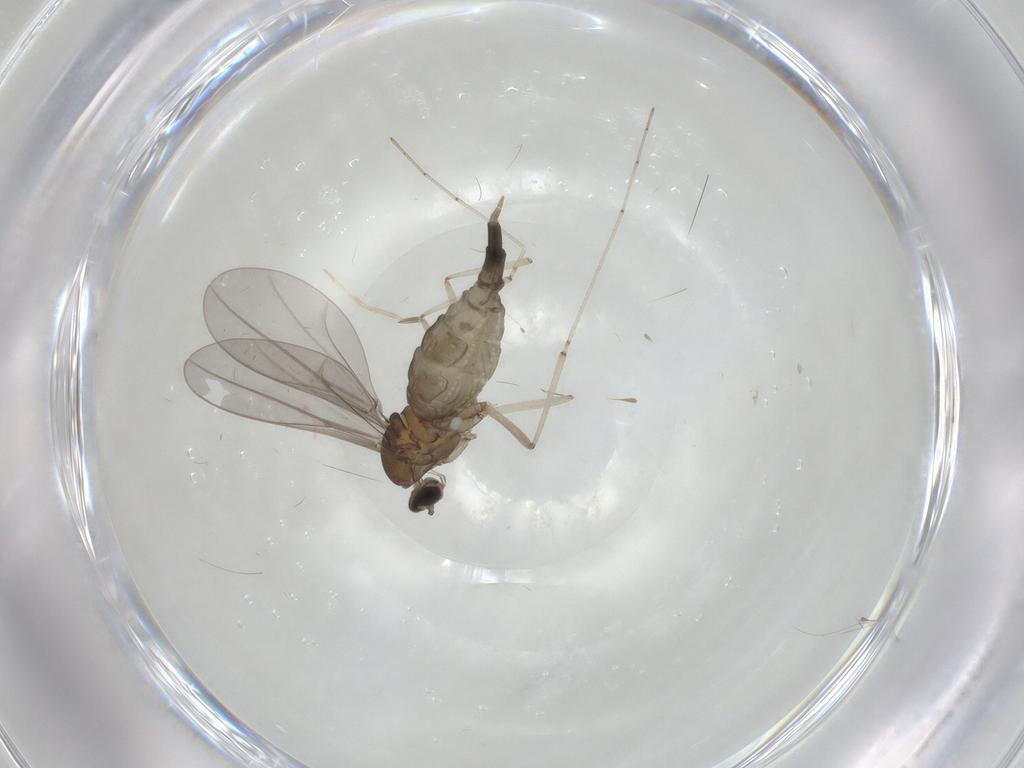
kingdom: Animalia
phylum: Arthropoda
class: Insecta
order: Diptera
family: Cecidomyiidae
